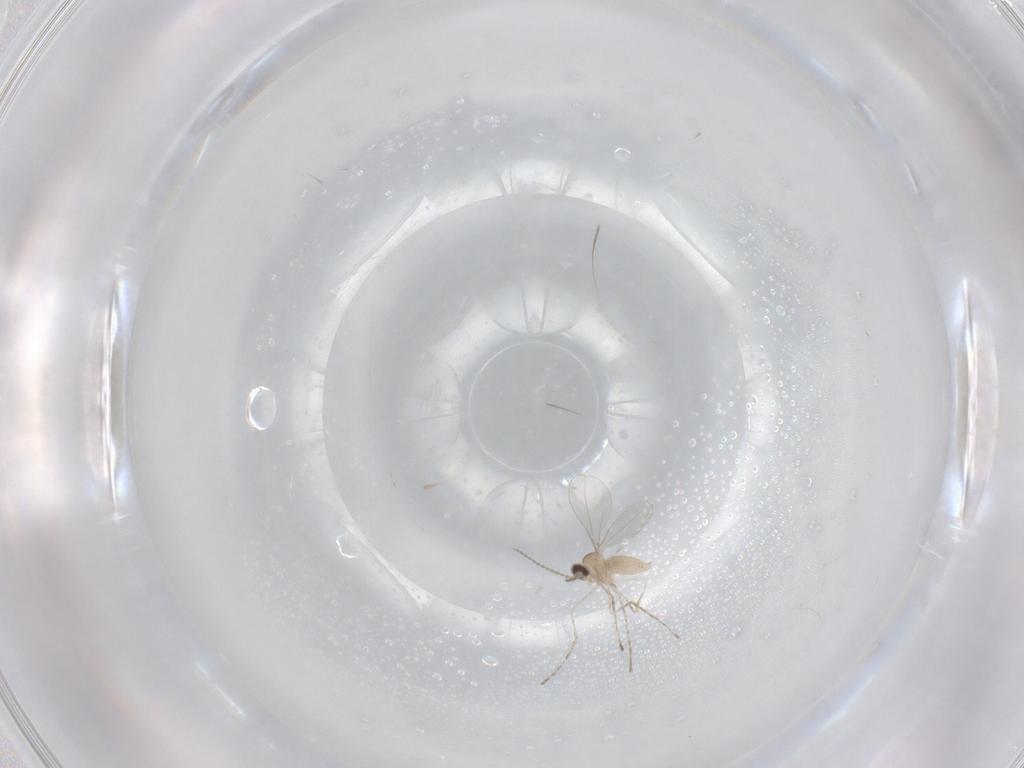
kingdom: Animalia
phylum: Arthropoda
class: Insecta
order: Diptera
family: Cecidomyiidae
